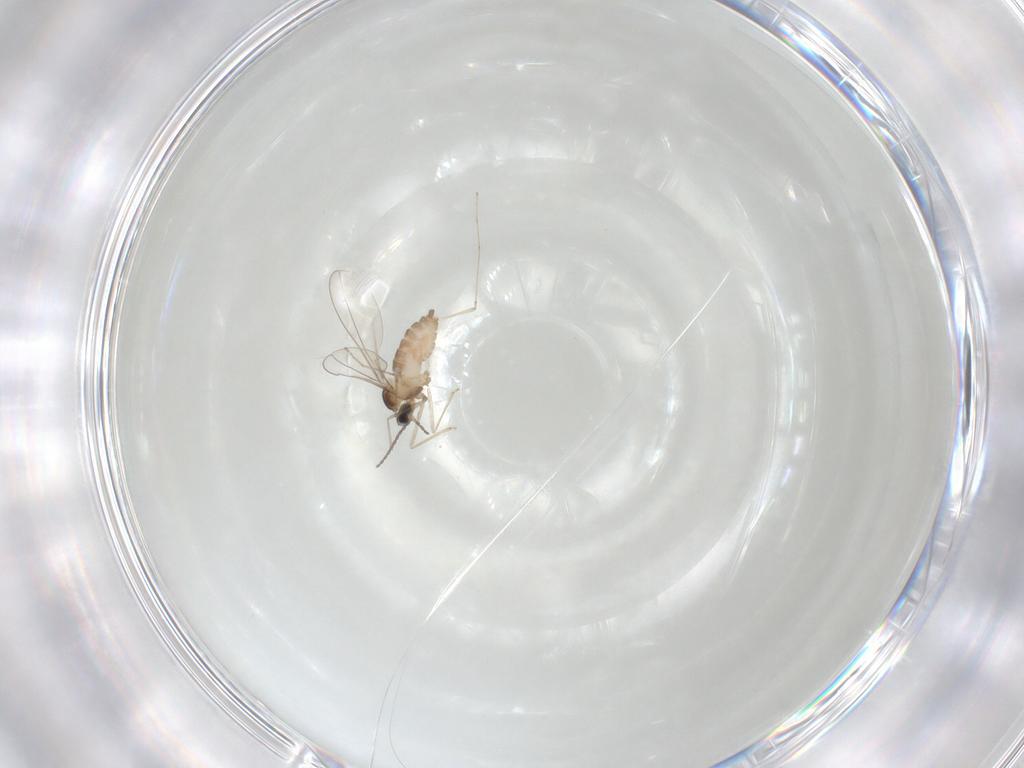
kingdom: Animalia
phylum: Arthropoda
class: Insecta
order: Diptera
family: Cecidomyiidae
